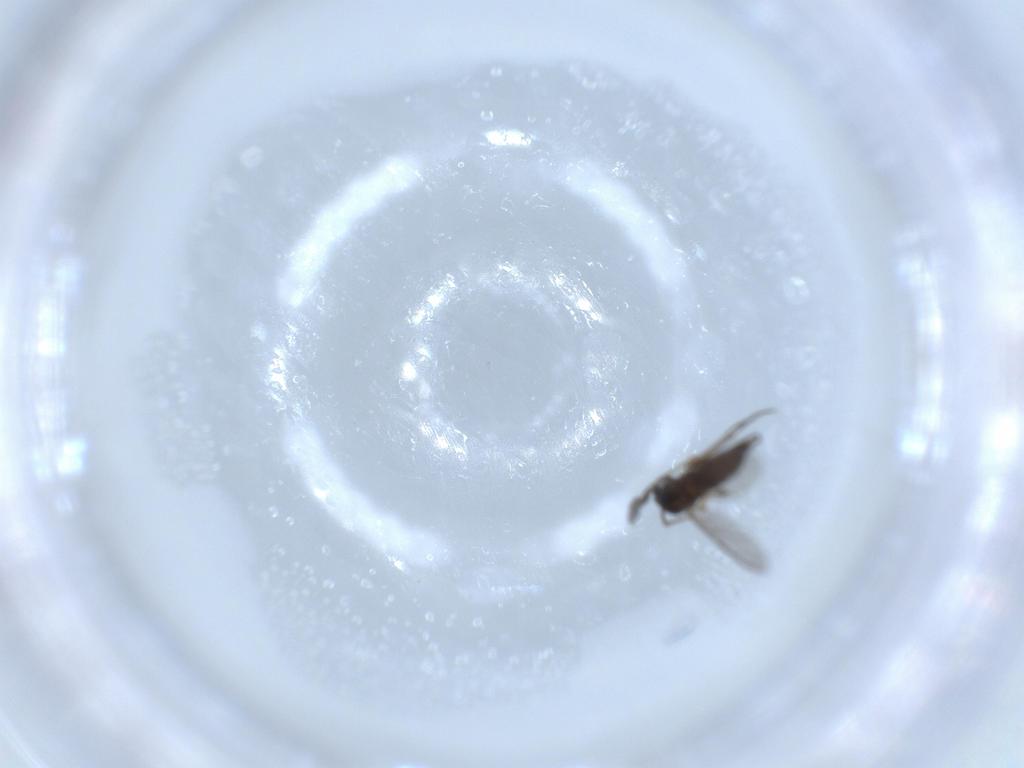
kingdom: Animalia
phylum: Arthropoda
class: Insecta
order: Diptera
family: Sciaridae
